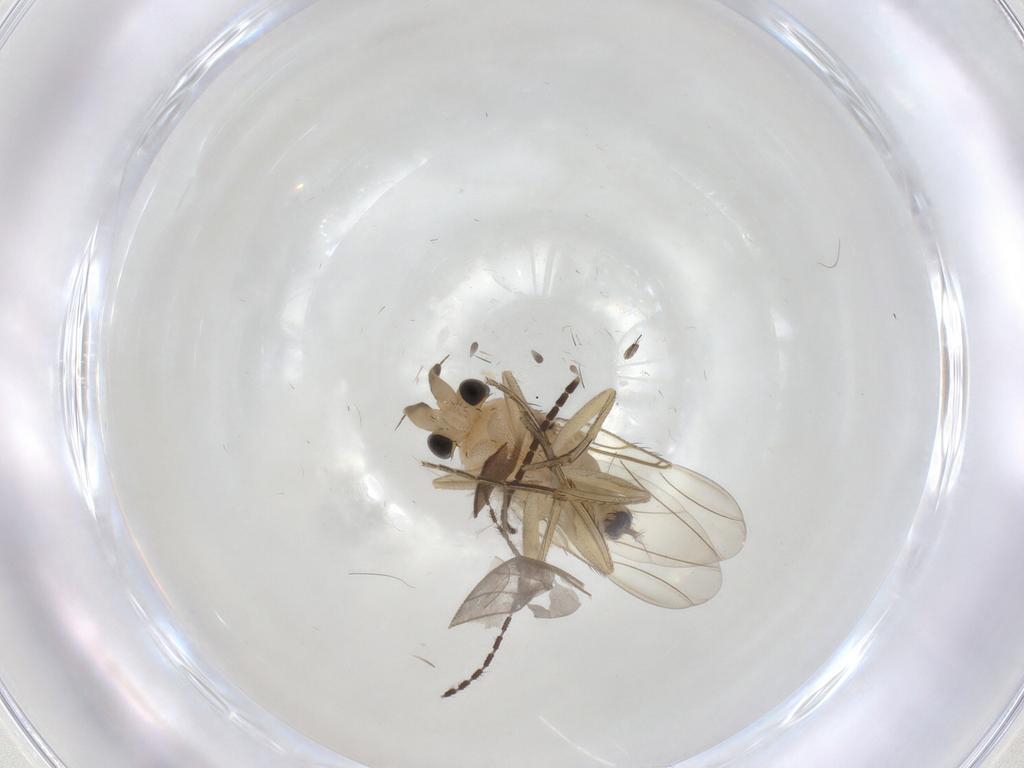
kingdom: Animalia
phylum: Arthropoda
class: Insecta
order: Diptera
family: Chironomidae
